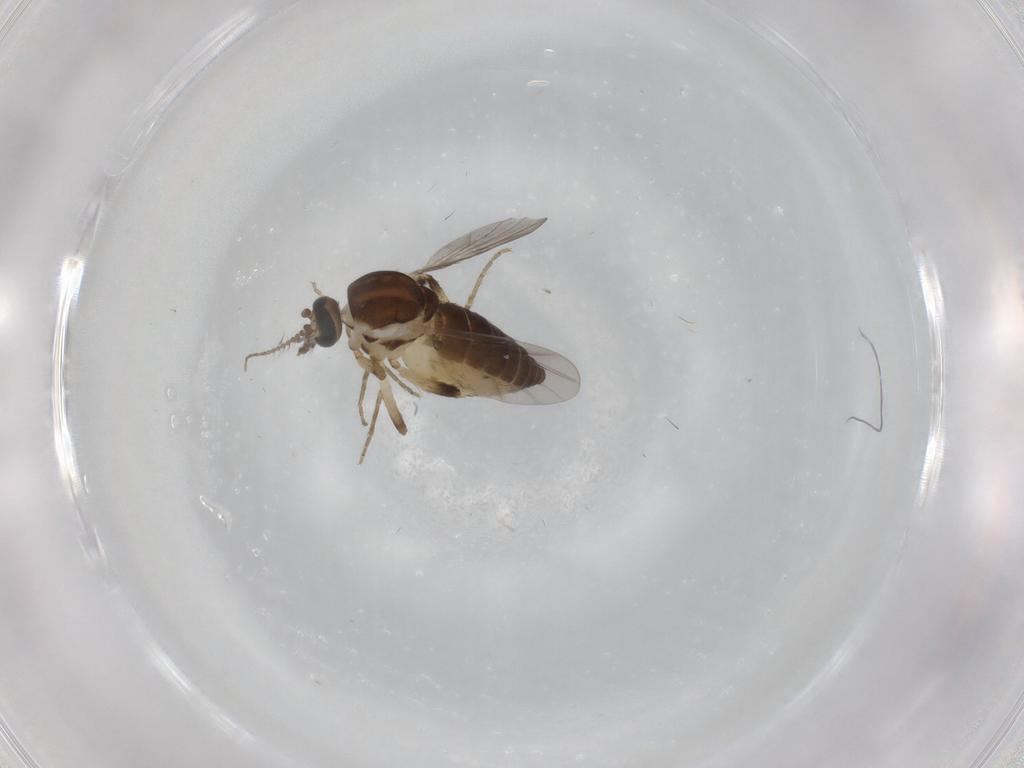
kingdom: Animalia
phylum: Arthropoda
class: Insecta
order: Diptera
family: Ceratopogonidae
